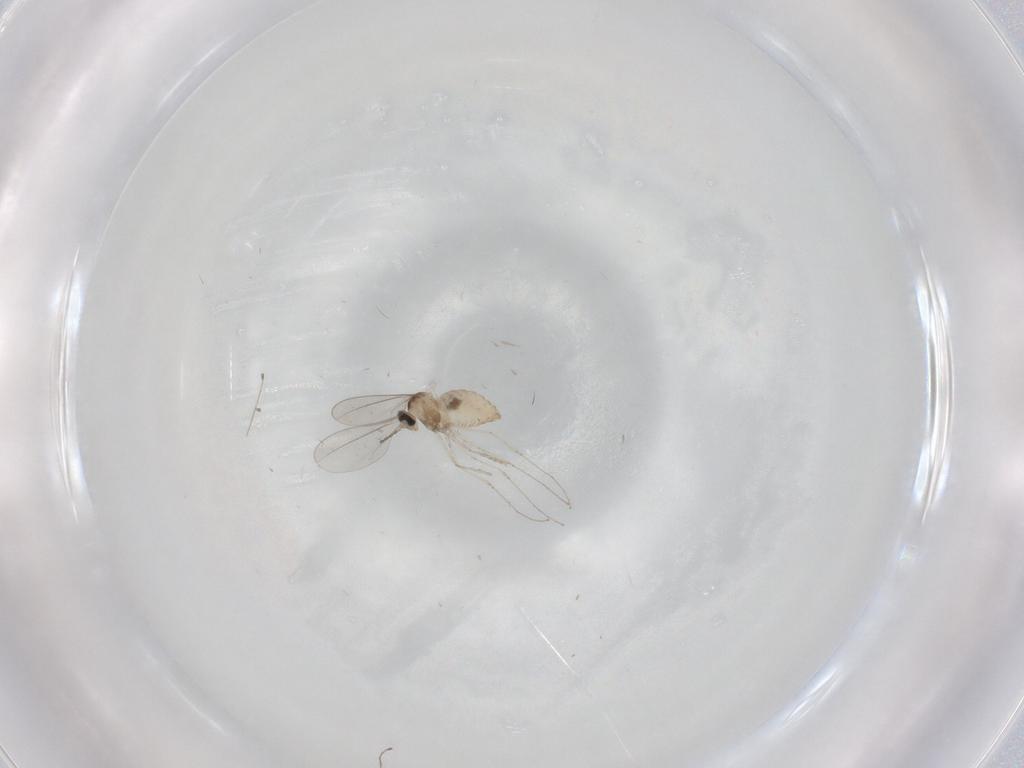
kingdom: Animalia
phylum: Arthropoda
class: Insecta
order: Diptera
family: Cecidomyiidae
